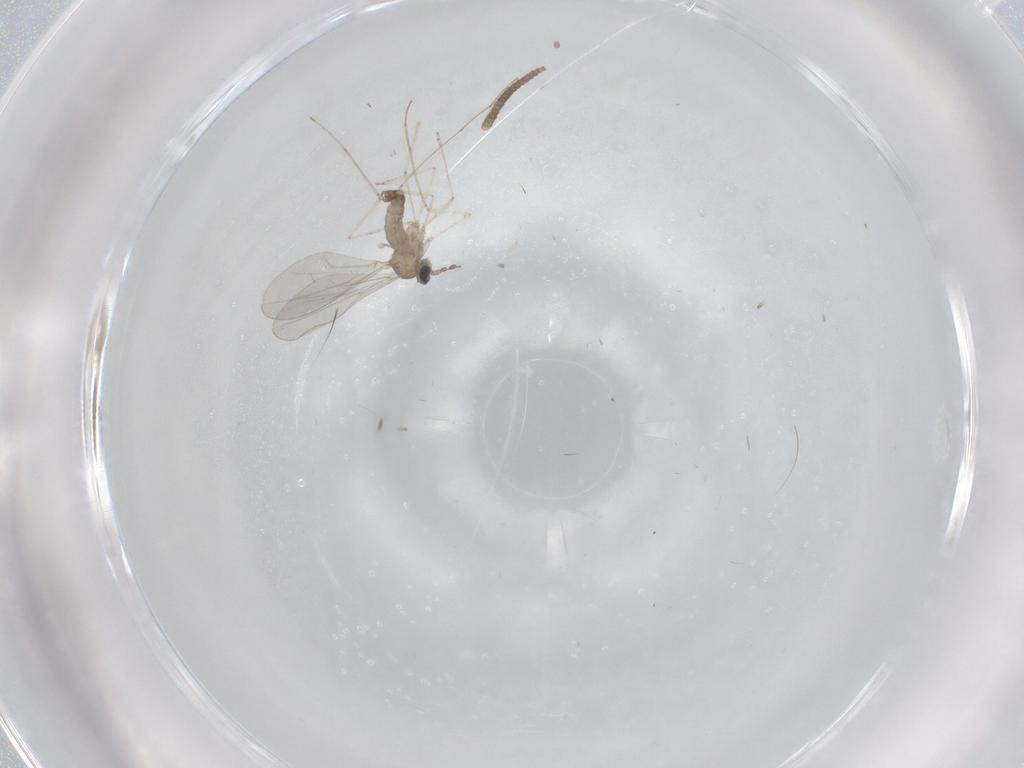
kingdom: Animalia
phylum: Arthropoda
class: Insecta
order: Diptera
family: Cecidomyiidae
